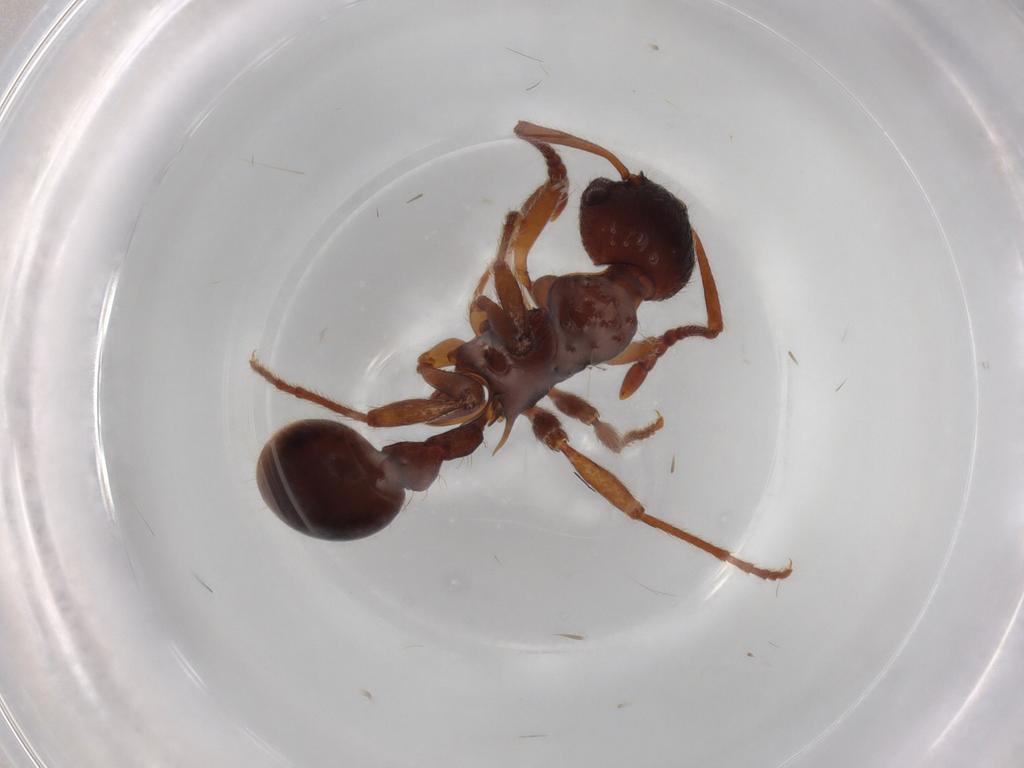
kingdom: Animalia
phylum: Arthropoda
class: Insecta
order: Hymenoptera
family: Formicidae
